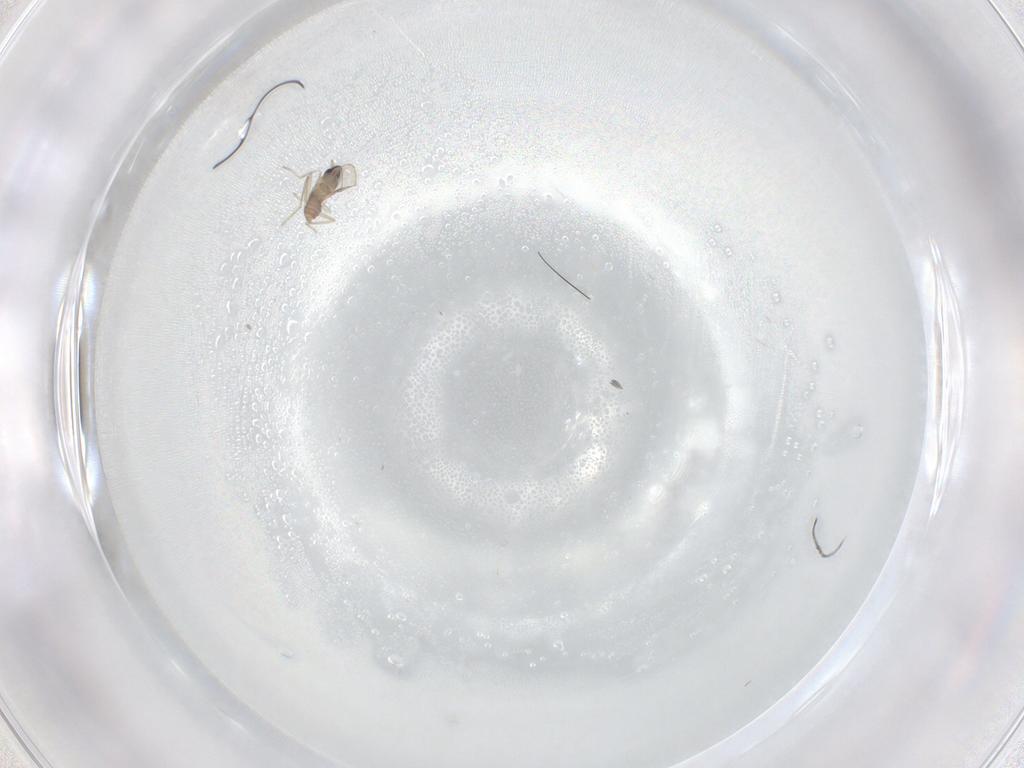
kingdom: Animalia
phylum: Arthropoda
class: Insecta
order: Diptera
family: Cecidomyiidae
